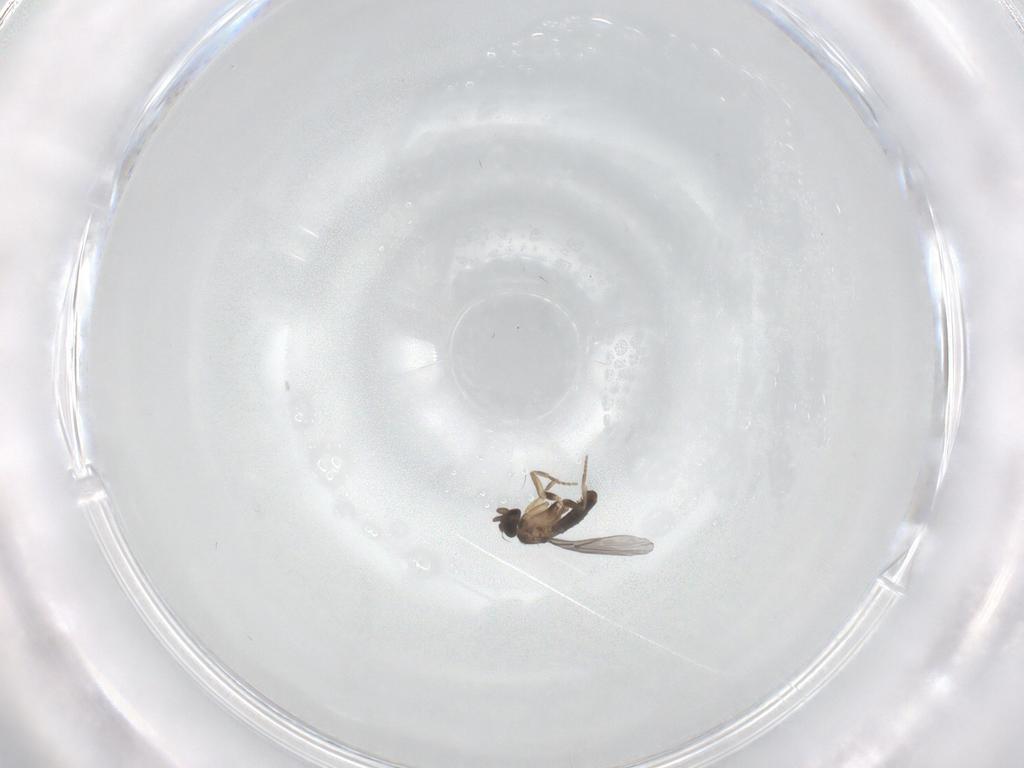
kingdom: Animalia
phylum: Arthropoda
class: Insecta
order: Diptera
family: Phoridae
